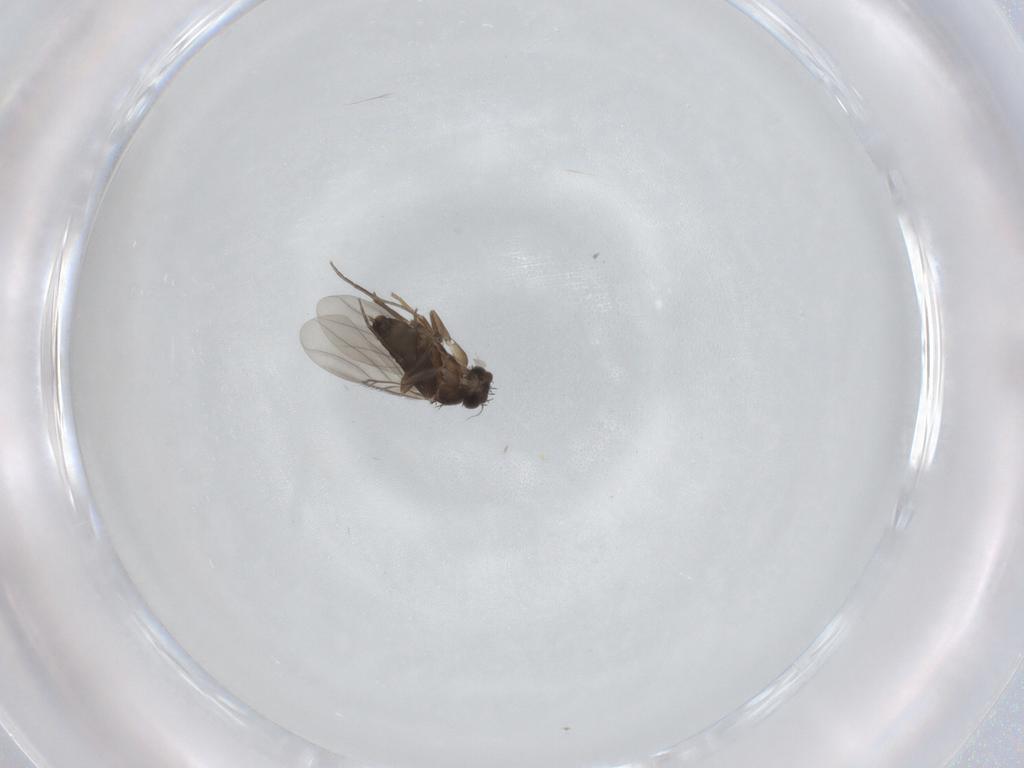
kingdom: Animalia
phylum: Arthropoda
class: Insecta
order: Diptera
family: Dolichopodidae
